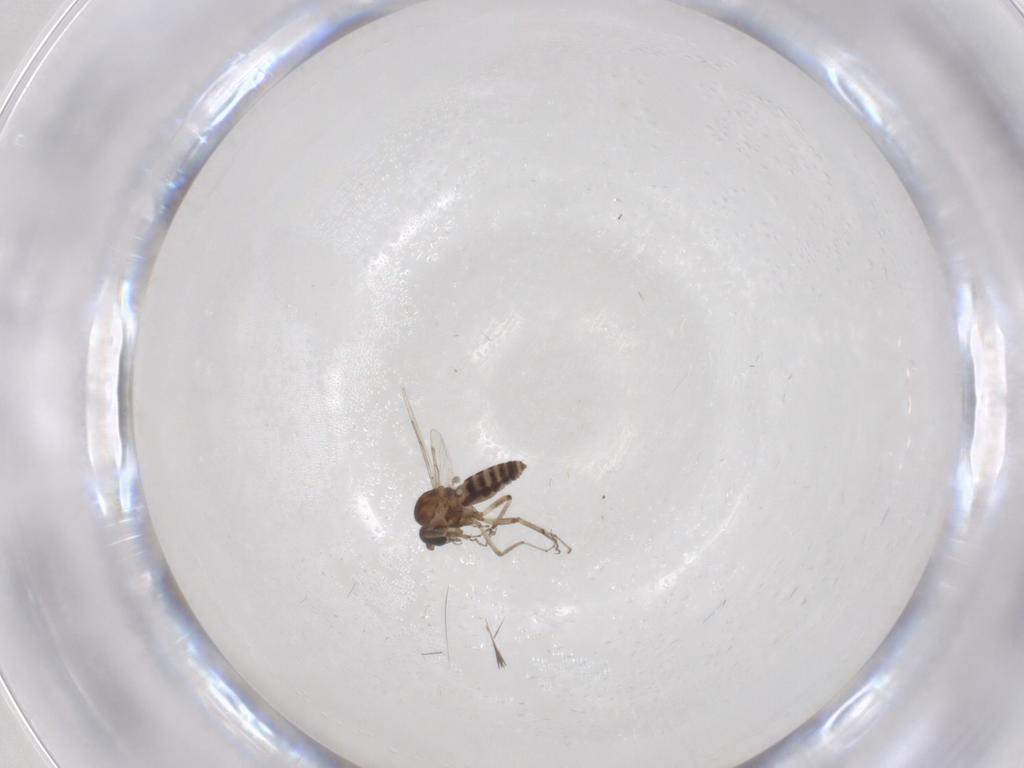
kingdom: Animalia
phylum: Arthropoda
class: Insecta
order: Diptera
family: Ceratopogonidae
